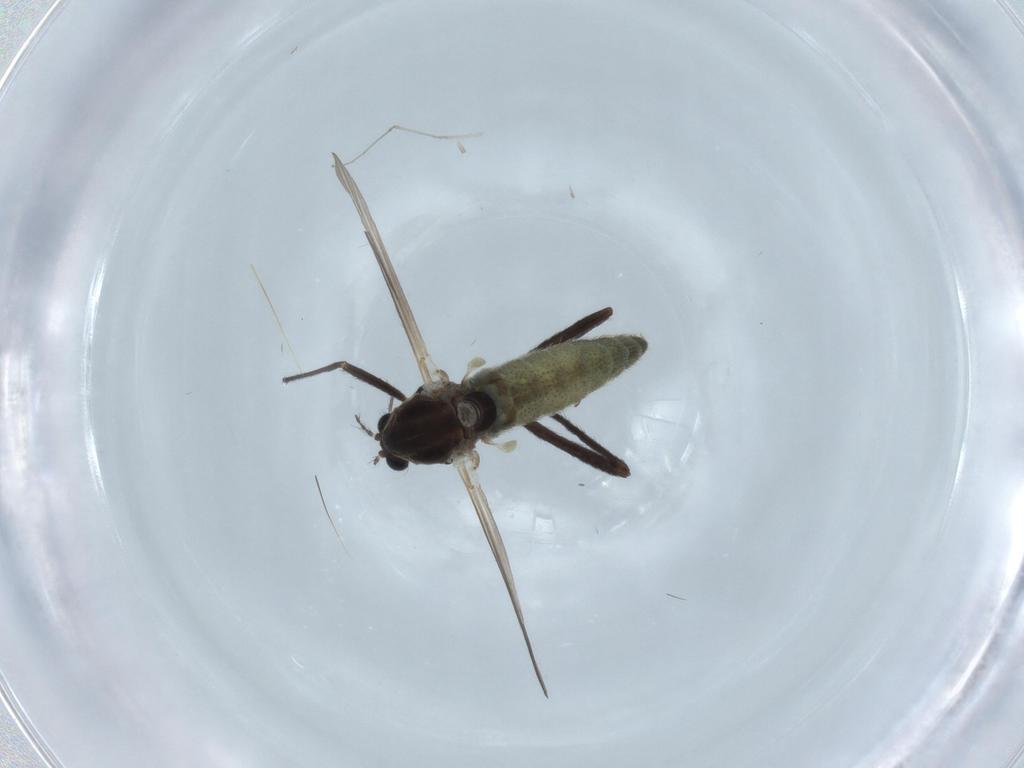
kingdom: Animalia
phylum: Arthropoda
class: Insecta
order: Diptera
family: Chironomidae
